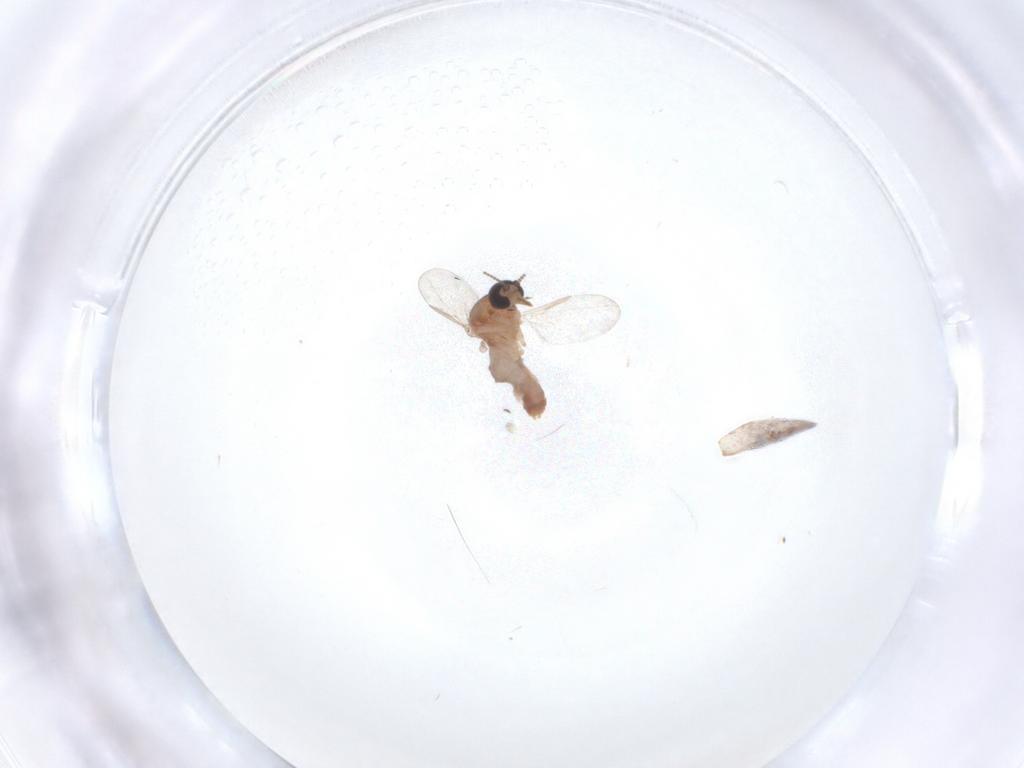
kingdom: Animalia
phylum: Arthropoda
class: Insecta
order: Diptera
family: Ceratopogonidae
